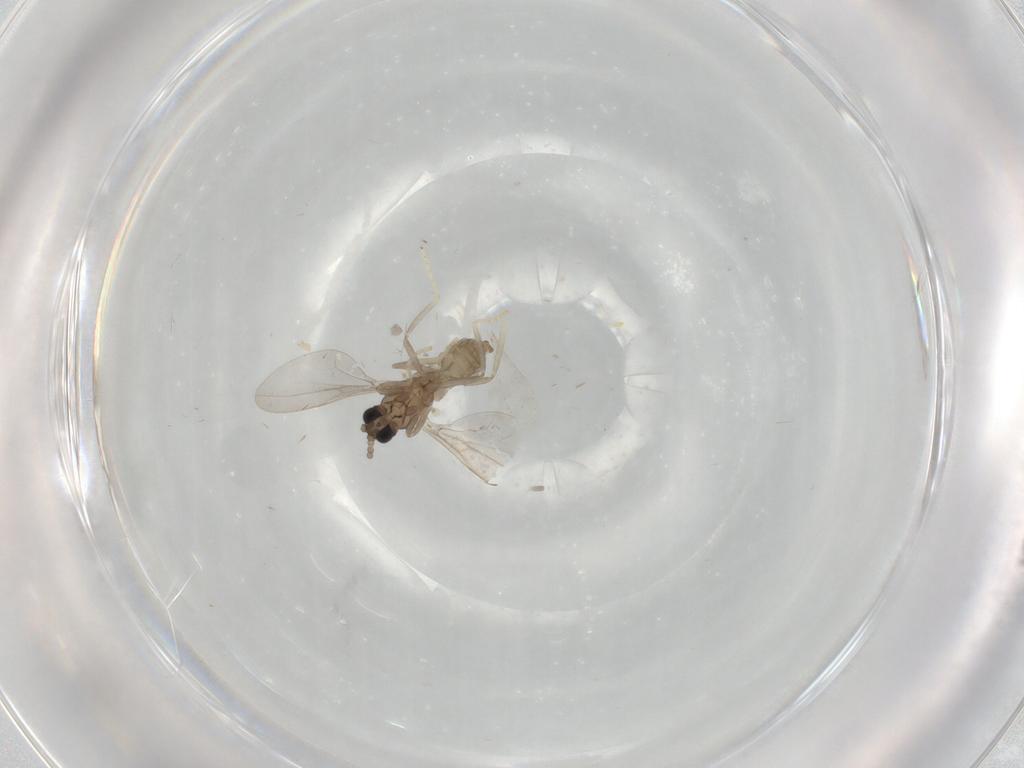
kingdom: Animalia
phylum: Arthropoda
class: Insecta
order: Diptera
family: Cecidomyiidae
